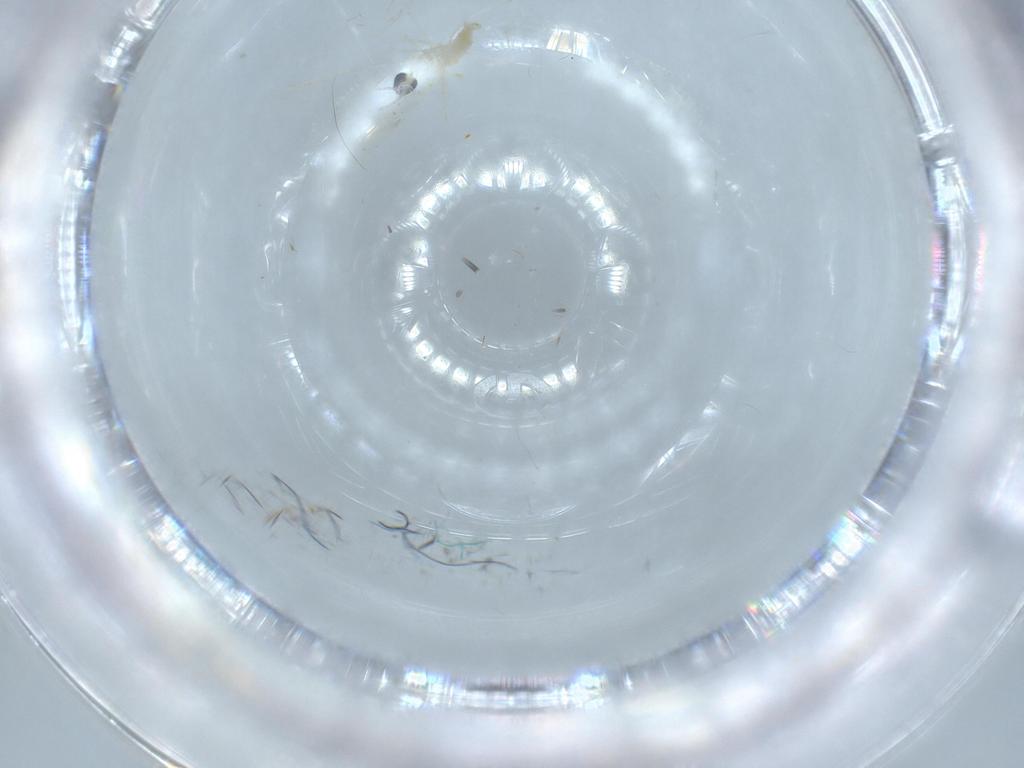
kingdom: Animalia
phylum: Arthropoda
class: Insecta
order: Diptera
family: Cecidomyiidae
